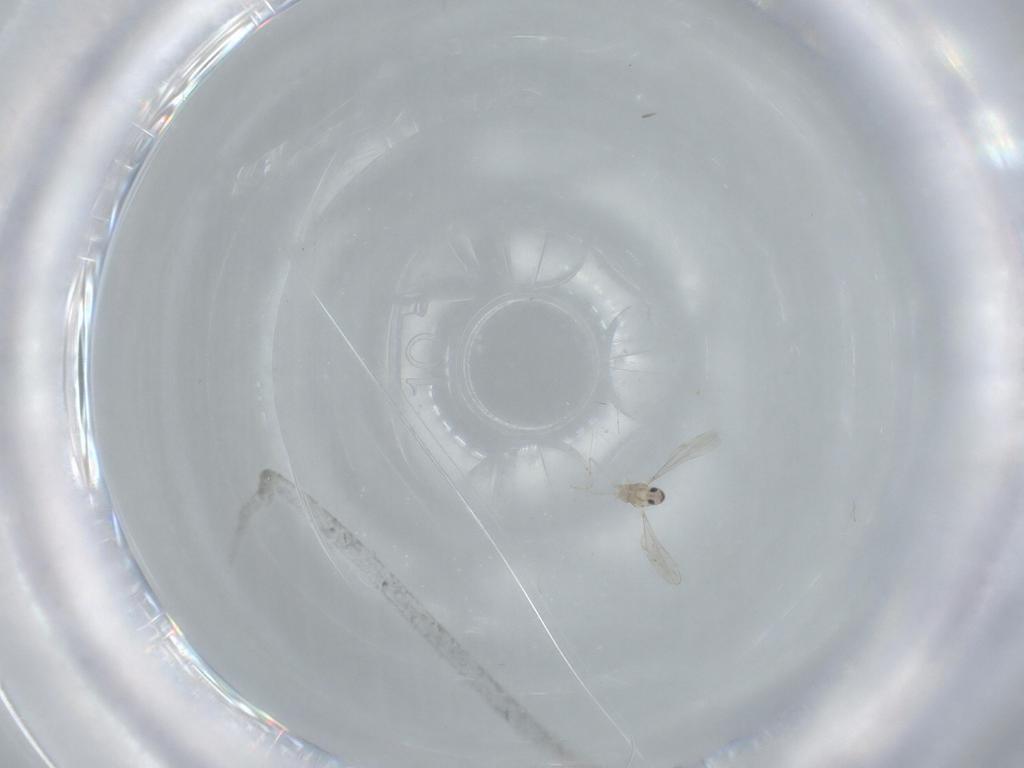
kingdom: Animalia
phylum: Arthropoda
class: Insecta
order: Diptera
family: Cecidomyiidae
